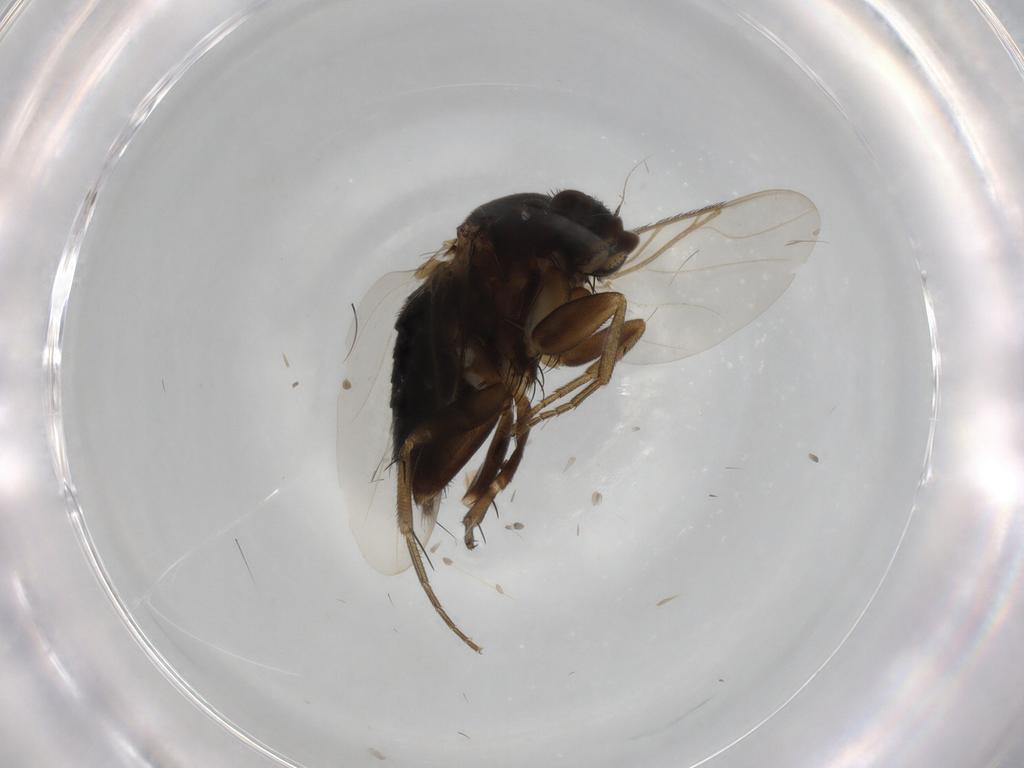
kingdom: Animalia
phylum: Arthropoda
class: Insecta
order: Diptera
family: Phoridae
